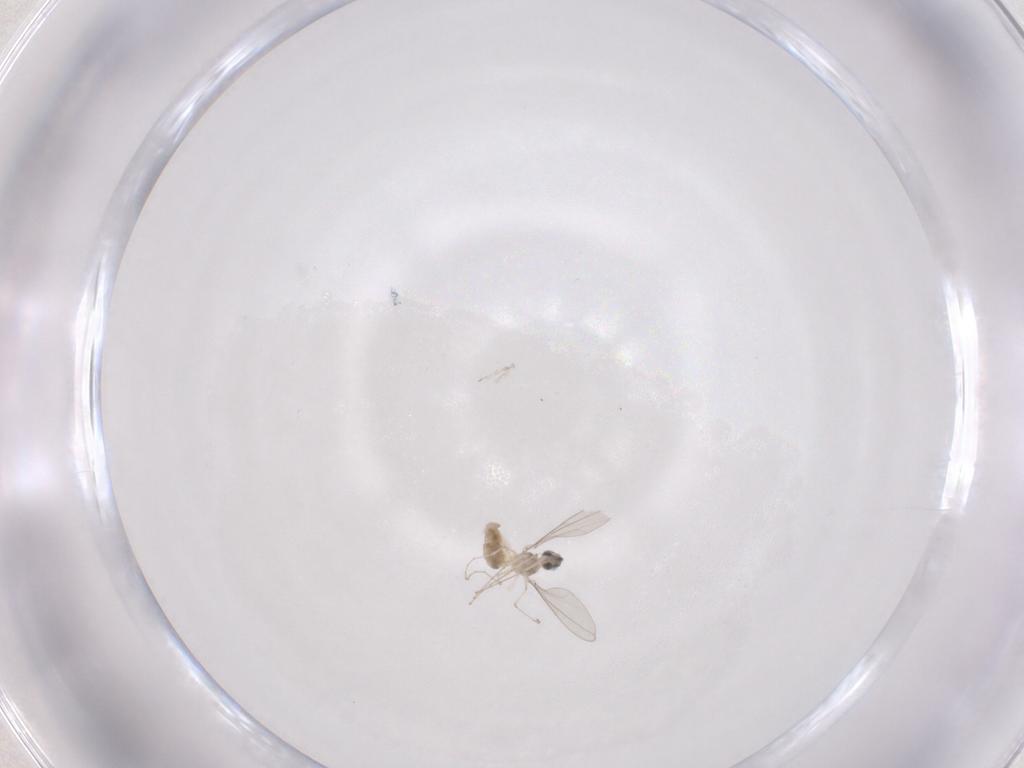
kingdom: Animalia
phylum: Arthropoda
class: Insecta
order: Diptera
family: Cecidomyiidae
